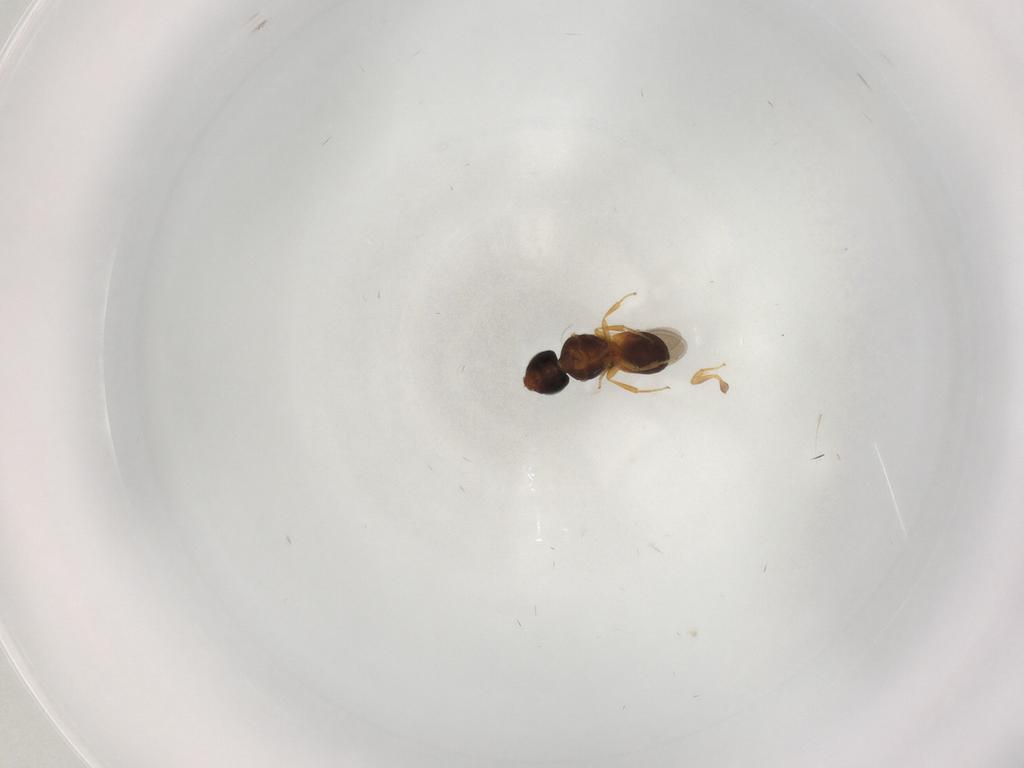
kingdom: Animalia
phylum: Arthropoda
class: Insecta
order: Hymenoptera
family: Scelionidae
